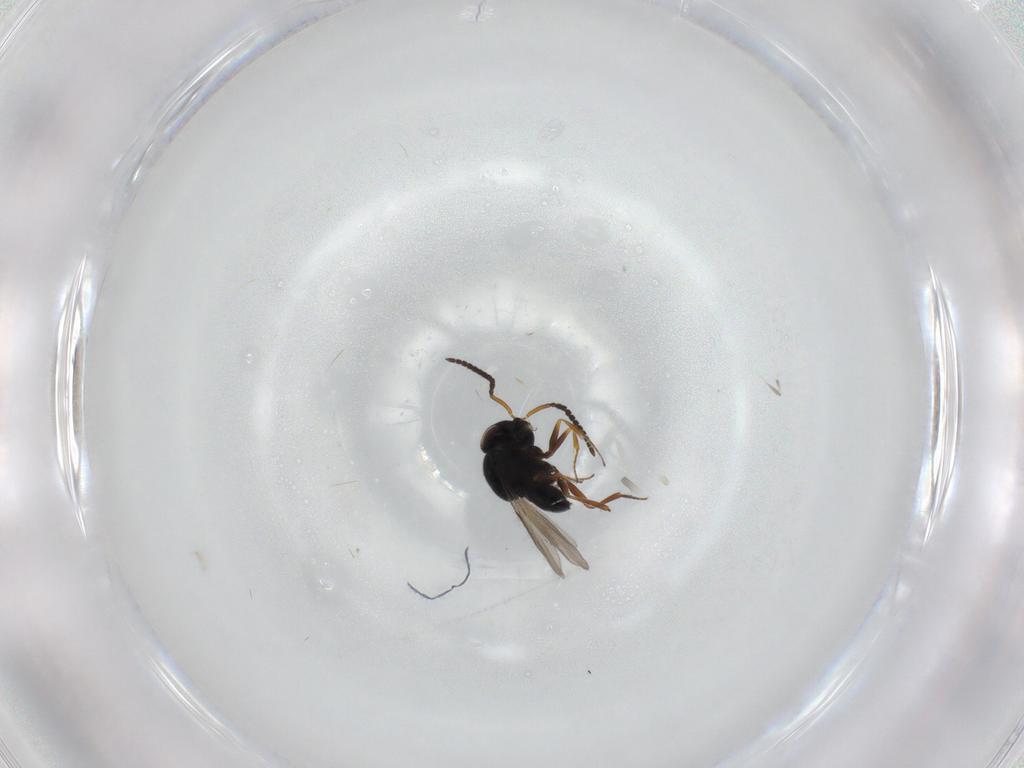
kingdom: Animalia
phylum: Arthropoda
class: Insecta
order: Hymenoptera
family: Scelionidae
